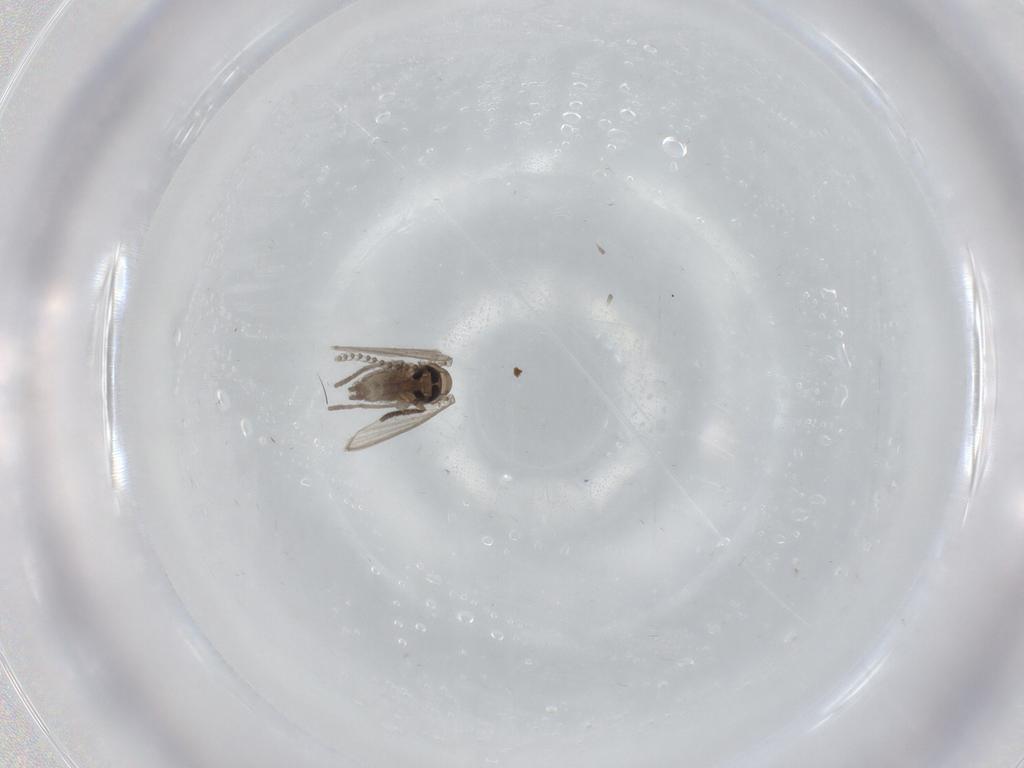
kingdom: Animalia
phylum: Arthropoda
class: Insecta
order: Diptera
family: Psychodidae
